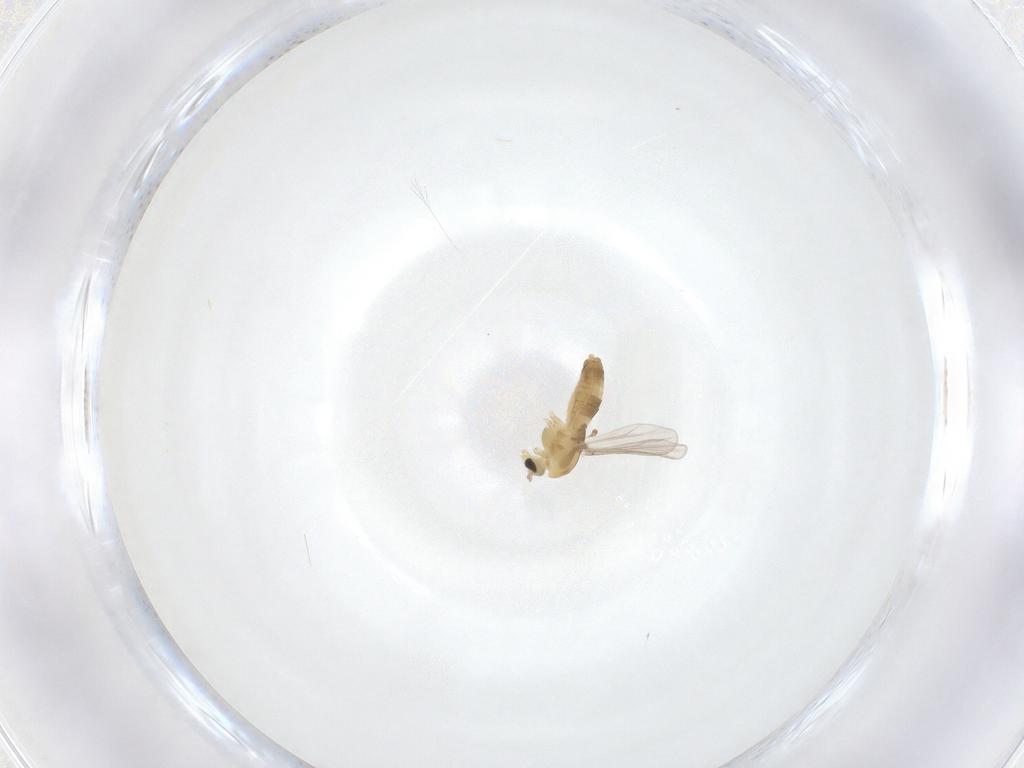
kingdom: Animalia
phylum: Arthropoda
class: Insecta
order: Diptera
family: Chironomidae
